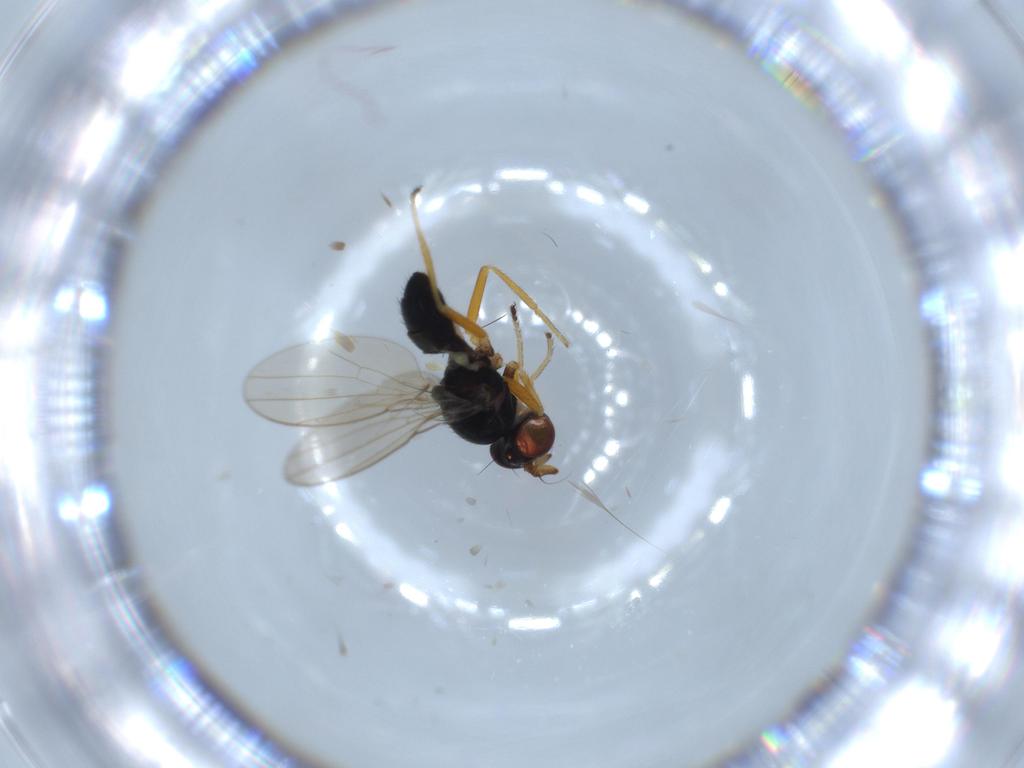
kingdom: Animalia
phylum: Arthropoda
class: Insecta
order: Diptera
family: Ephydridae
